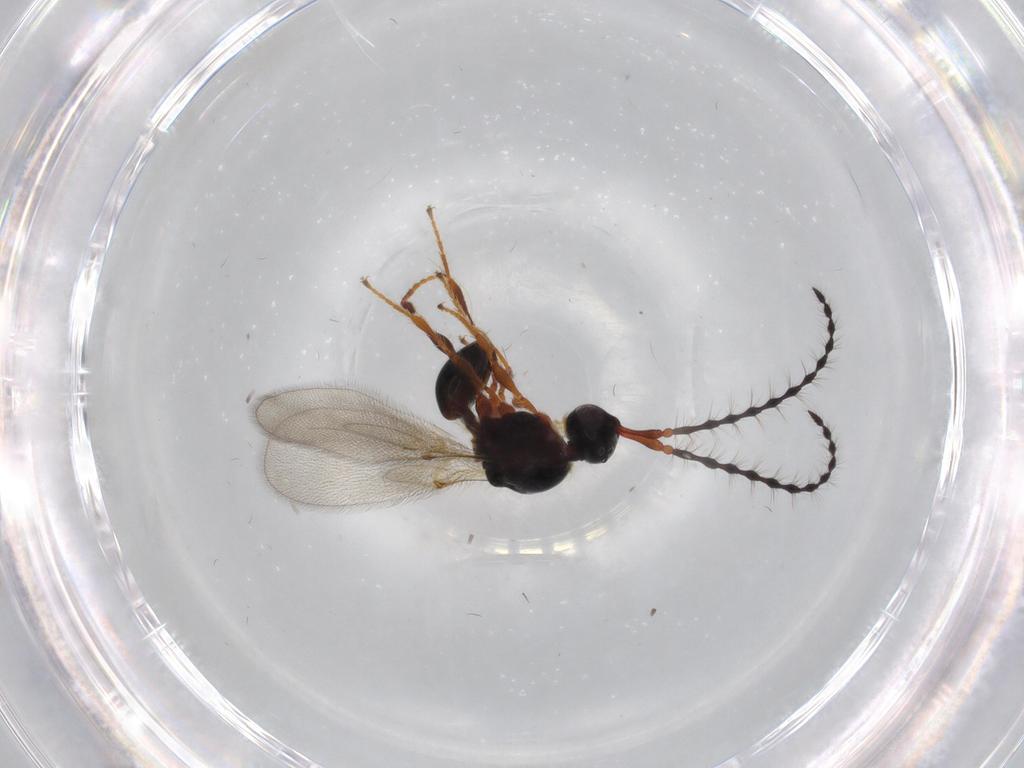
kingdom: Animalia
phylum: Arthropoda
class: Insecta
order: Hymenoptera
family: Diapriidae
